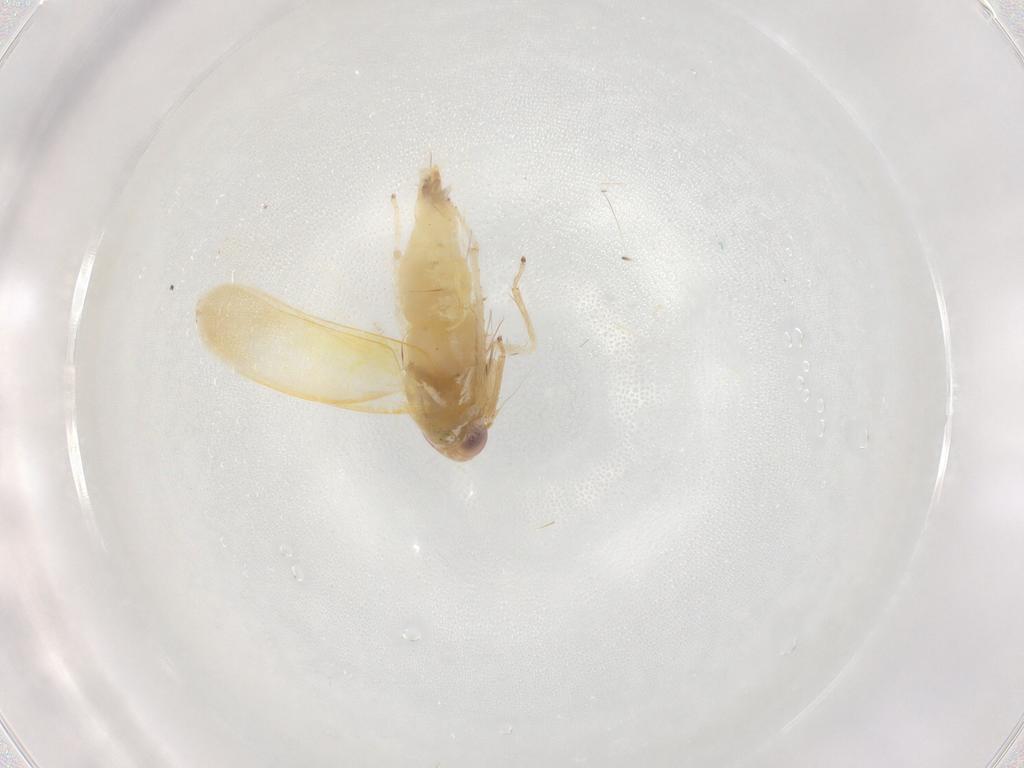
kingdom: Animalia
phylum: Arthropoda
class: Insecta
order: Hemiptera
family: Cicadellidae
